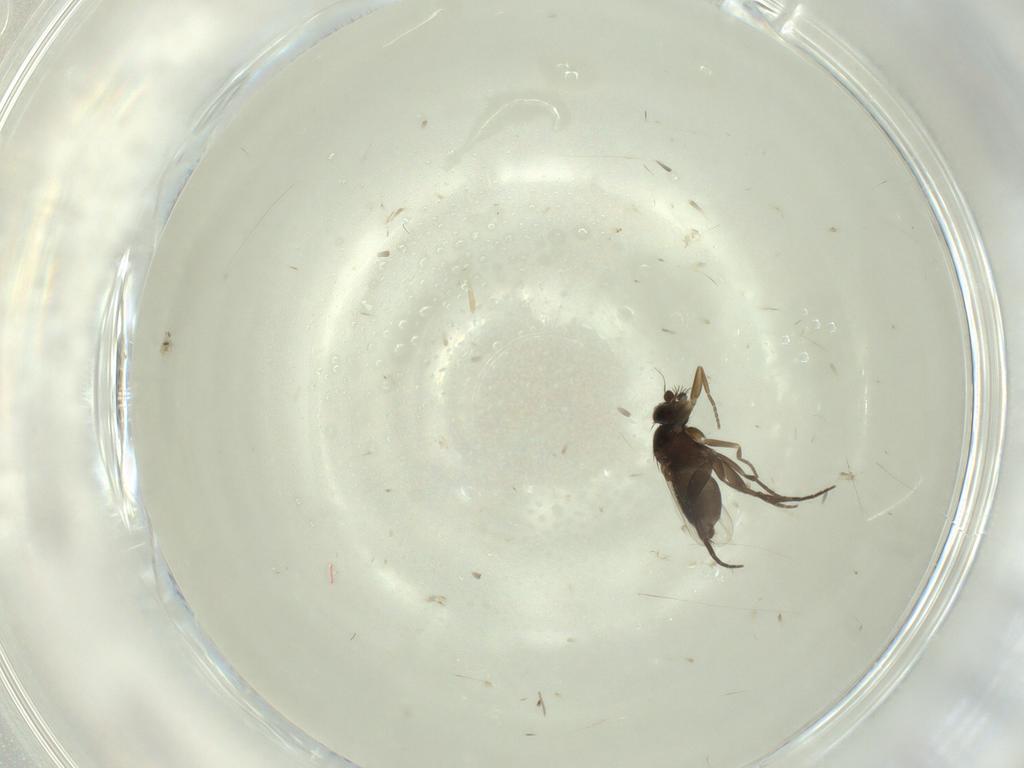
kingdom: Animalia
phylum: Arthropoda
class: Insecta
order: Diptera
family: Phoridae
